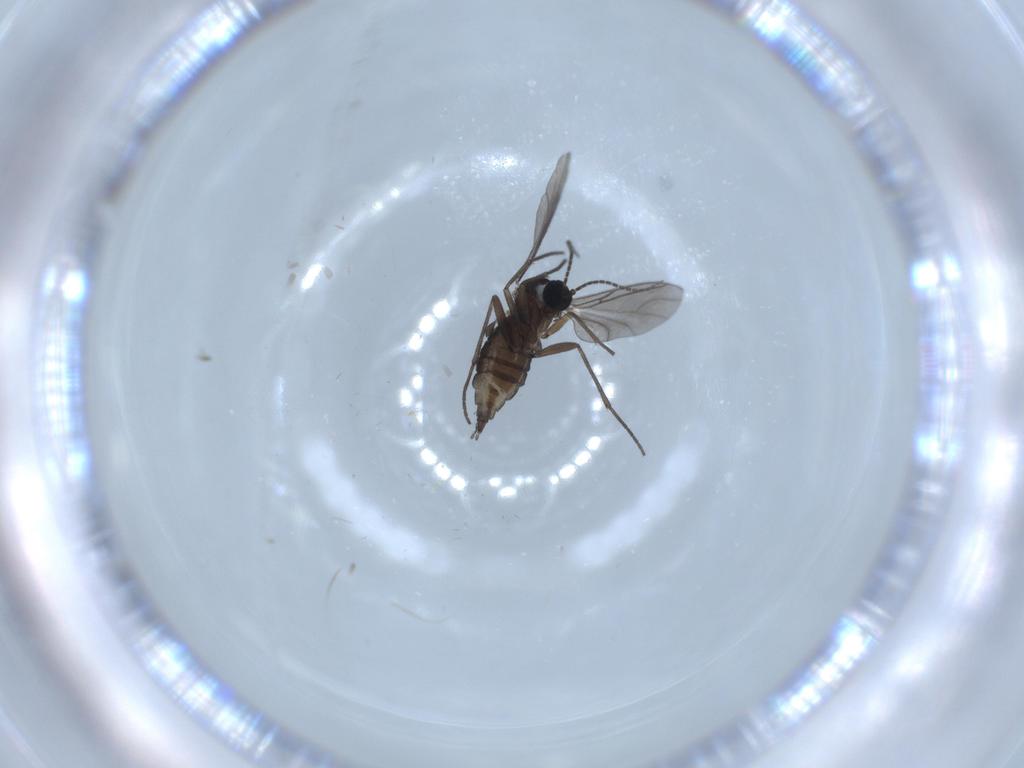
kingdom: Animalia
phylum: Arthropoda
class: Insecta
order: Diptera
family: Sciaridae
